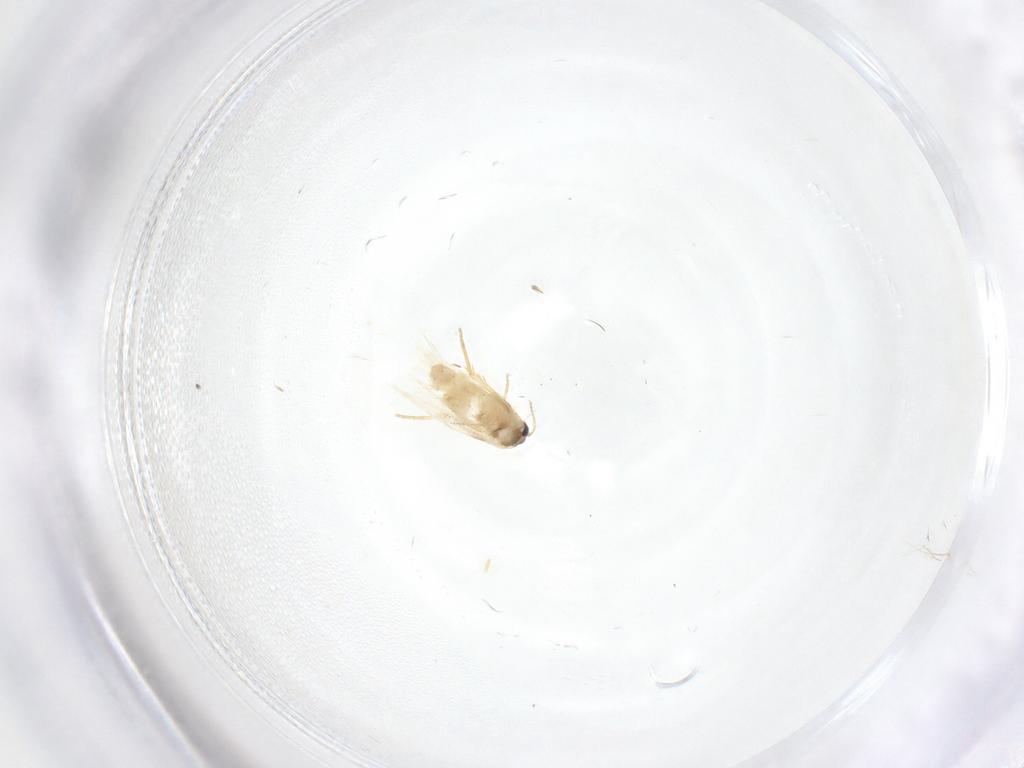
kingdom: Animalia
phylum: Arthropoda
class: Insecta
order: Lepidoptera
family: Crambidae
